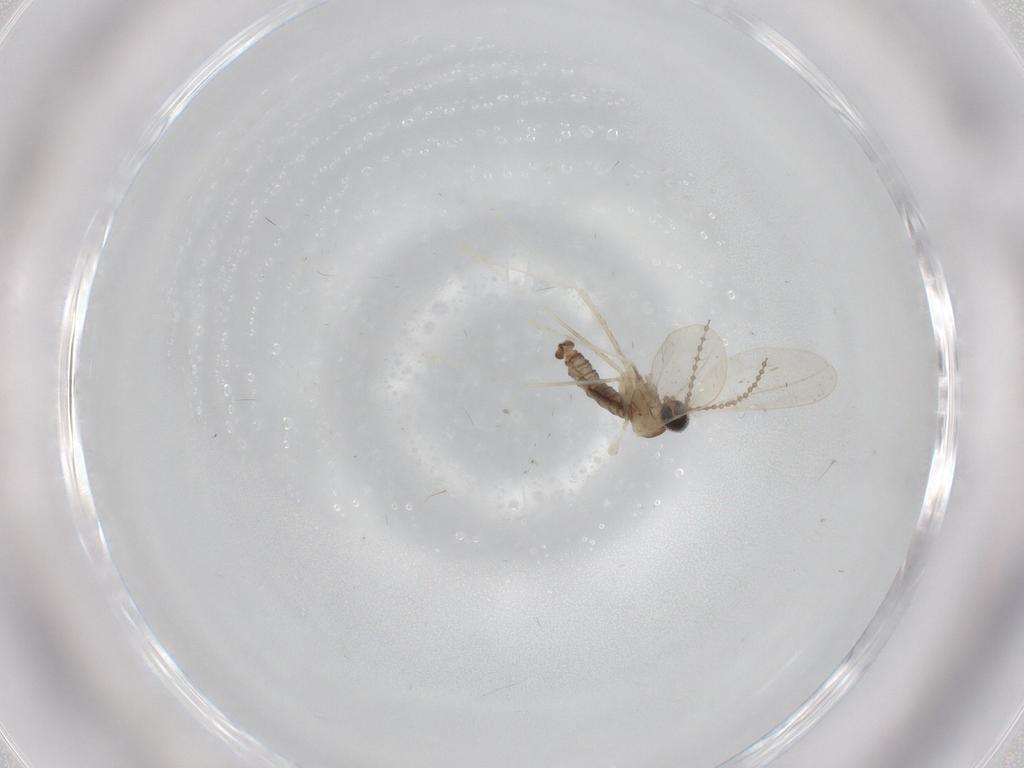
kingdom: Animalia
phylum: Arthropoda
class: Insecta
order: Diptera
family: Cecidomyiidae
